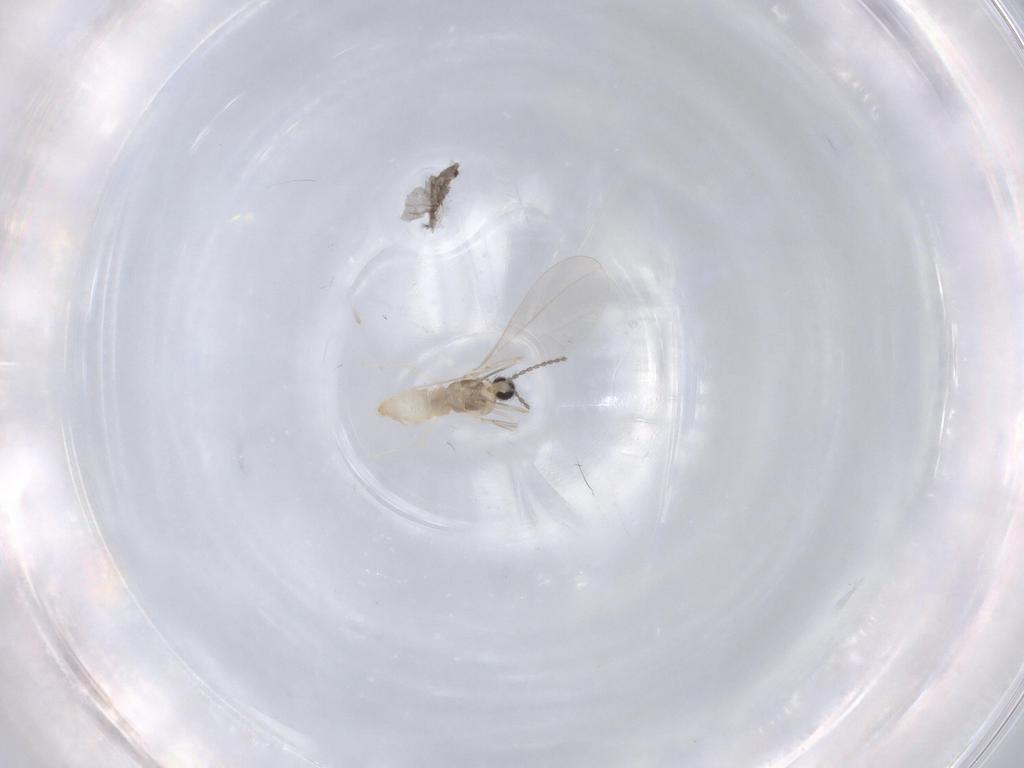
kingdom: Animalia
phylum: Arthropoda
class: Insecta
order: Diptera
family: Cecidomyiidae
